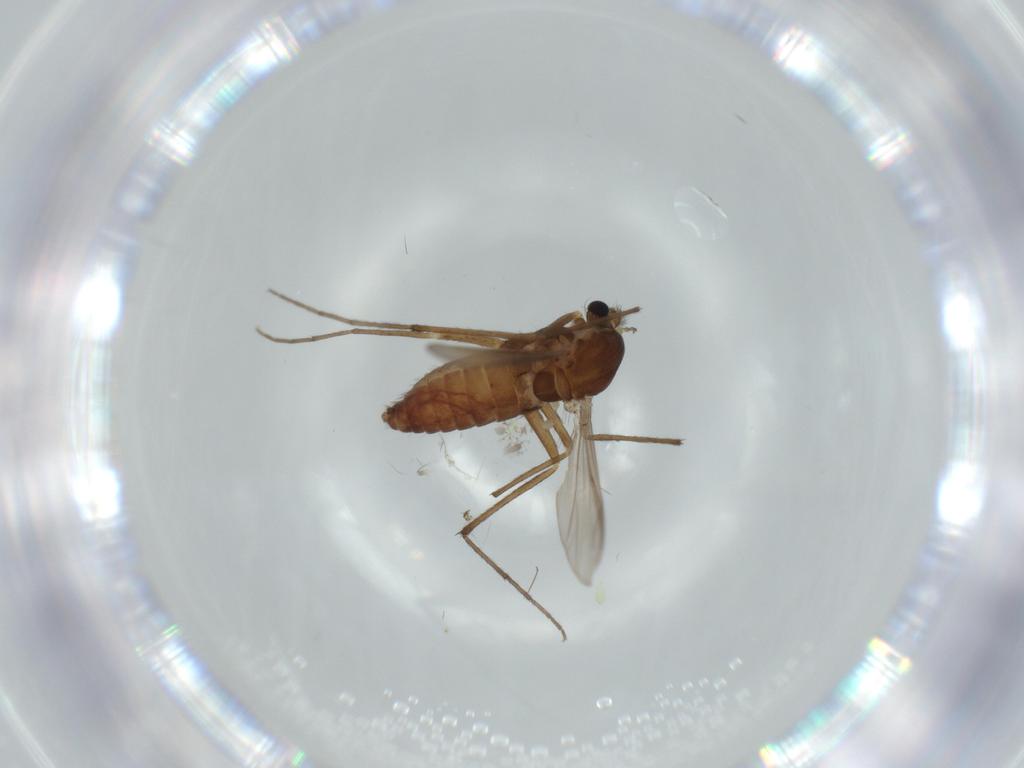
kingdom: Animalia
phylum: Arthropoda
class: Insecta
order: Diptera
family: Chironomidae
